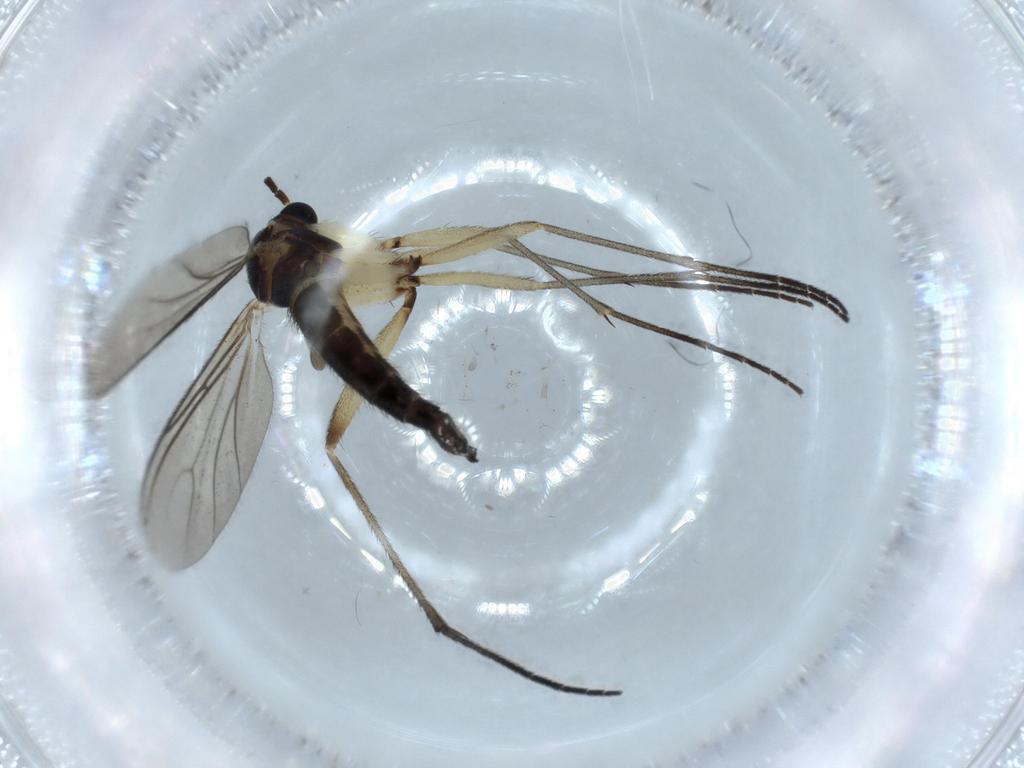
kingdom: Animalia
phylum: Arthropoda
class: Insecta
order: Diptera
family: Sciaridae
